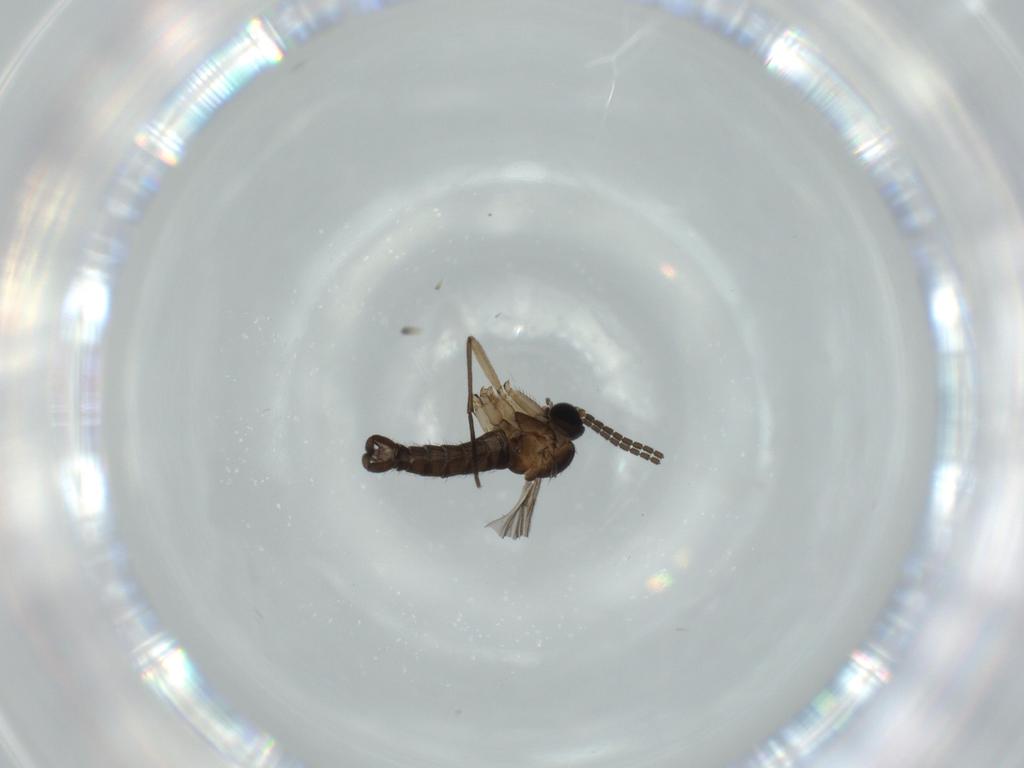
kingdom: Animalia
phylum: Arthropoda
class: Insecta
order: Diptera
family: Sciaridae
